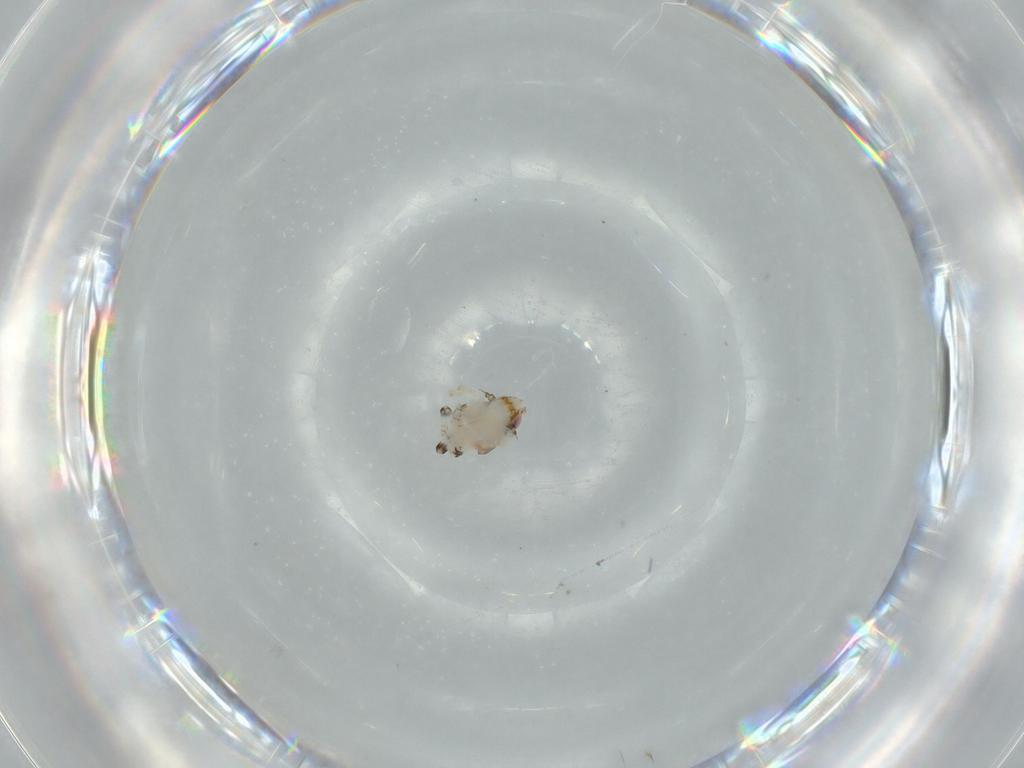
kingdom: Animalia
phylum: Arthropoda
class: Insecta
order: Hemiptera
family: Nogodinidae
